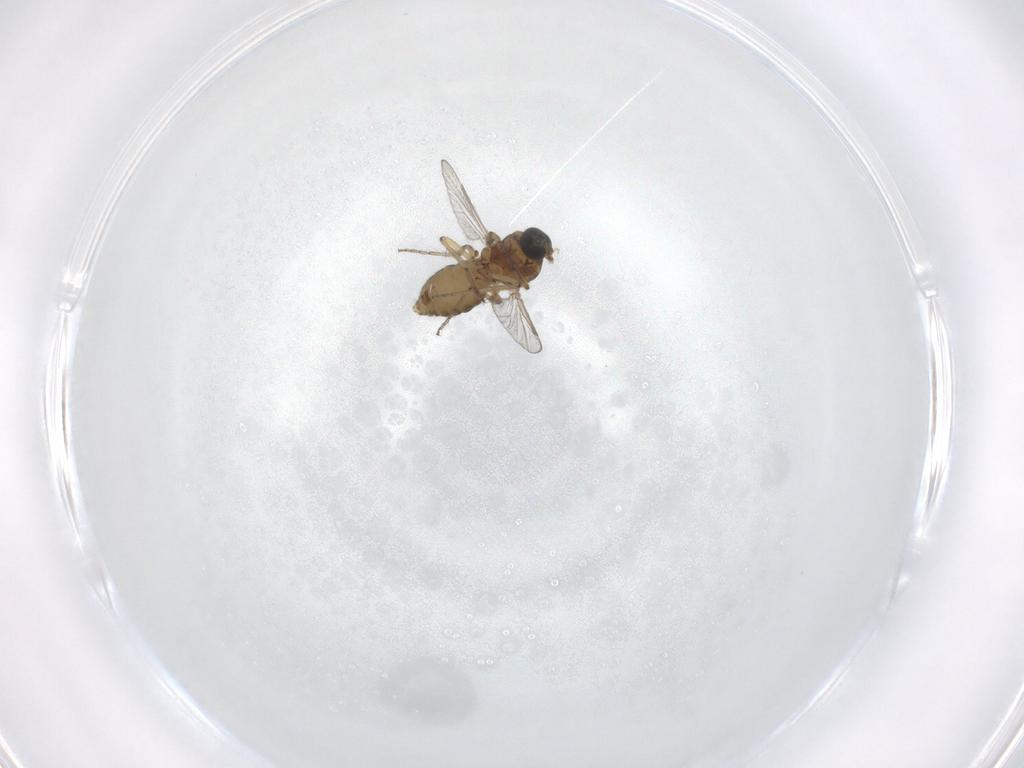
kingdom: Animalia
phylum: Arthropoda
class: Insecta
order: Diptera
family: Ceratopogonidae
